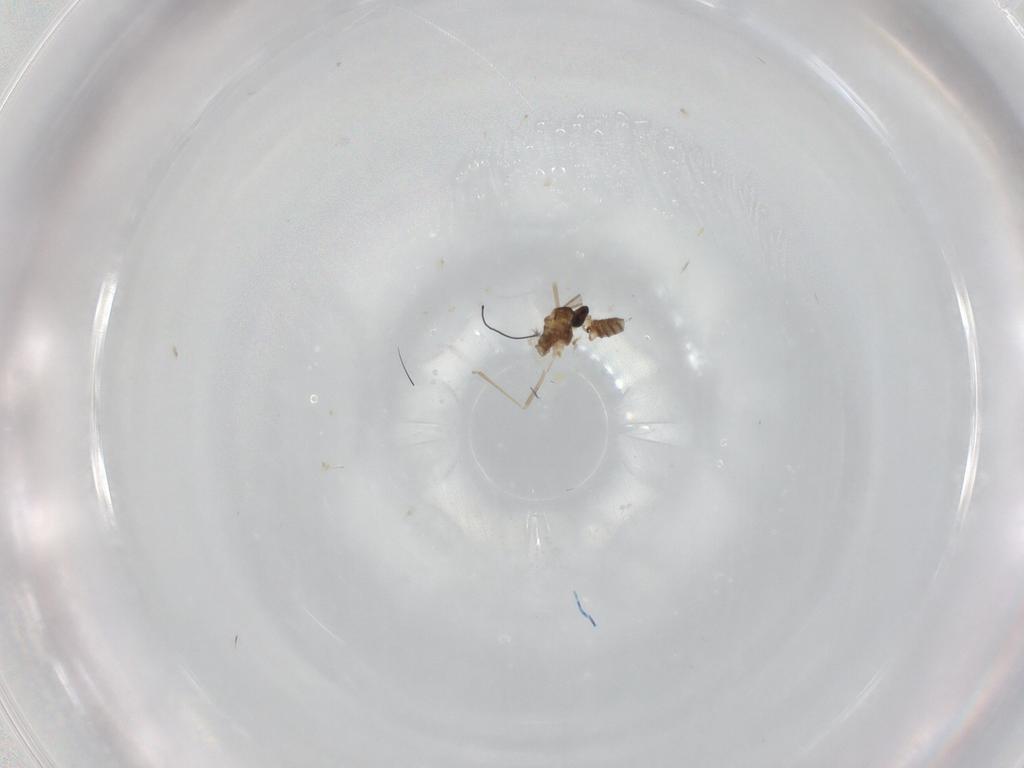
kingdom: Animalia
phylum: Arthropoda
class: Insecta
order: Diptera
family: Cecidomyiidae
